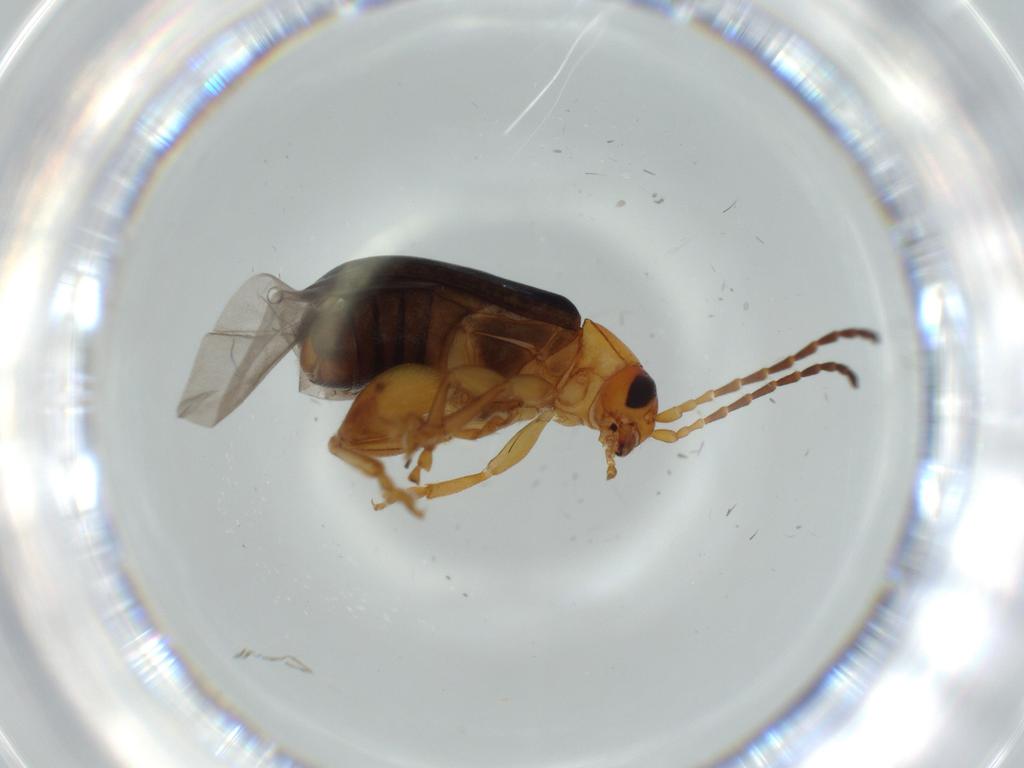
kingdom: Animalia
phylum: Arthropoda
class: Insecta
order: Coleoptera
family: Chrysomelidae
